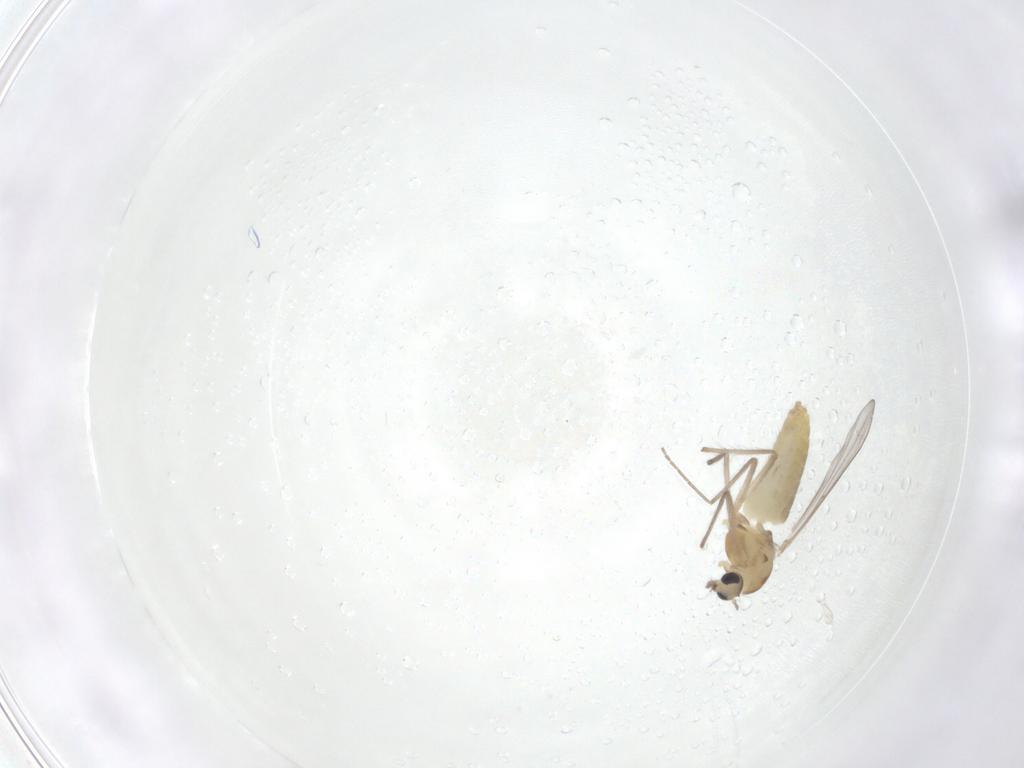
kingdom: Animalia
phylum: Arthropoda
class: Insecta
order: Diptera
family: Chironomidae
